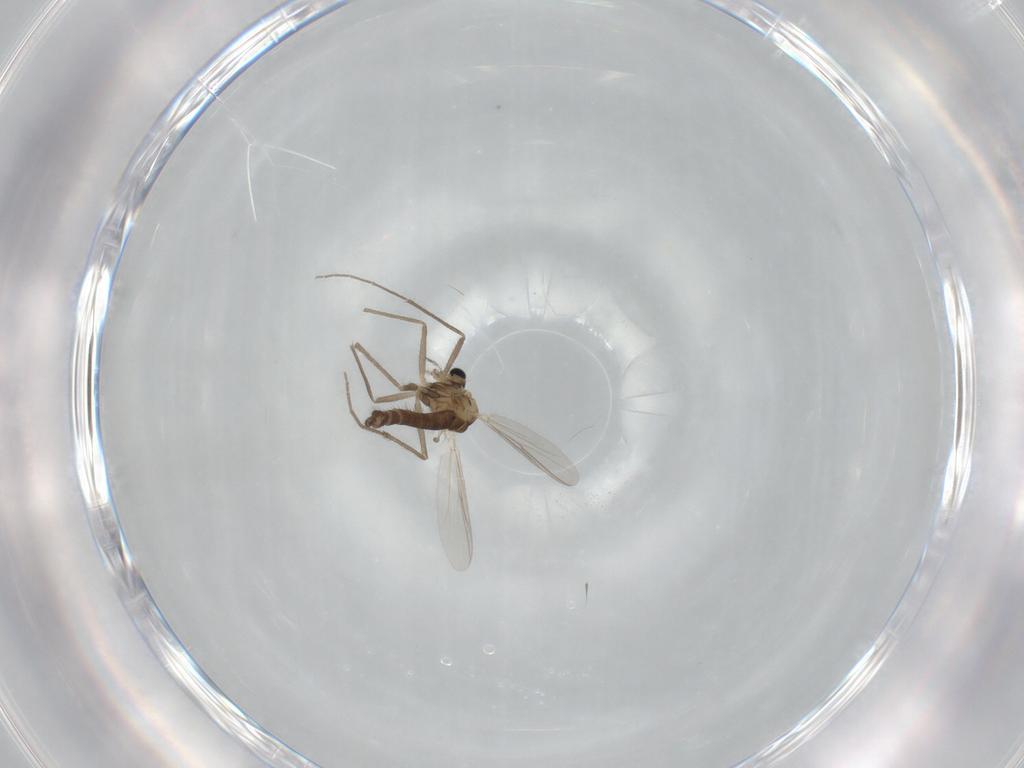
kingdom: Animalia
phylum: Arthropoda
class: Insecta
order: Diptera
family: Chironomidae
